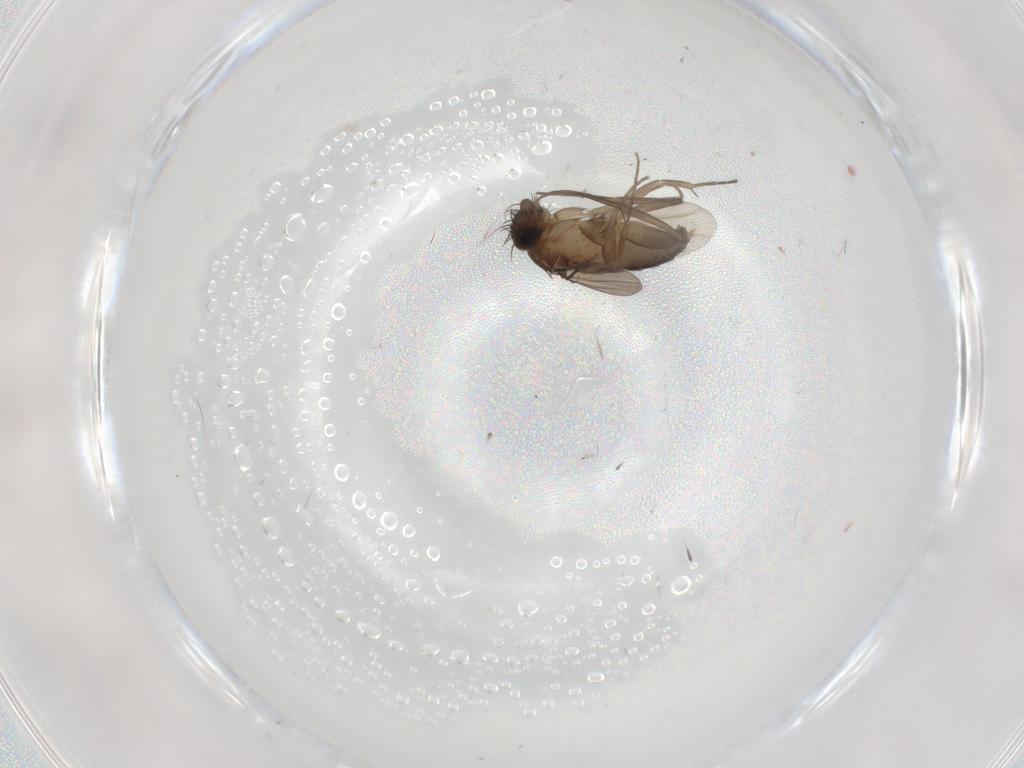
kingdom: Animalia
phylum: Arthropoda
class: Insecta
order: Diptera
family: Phoridae
